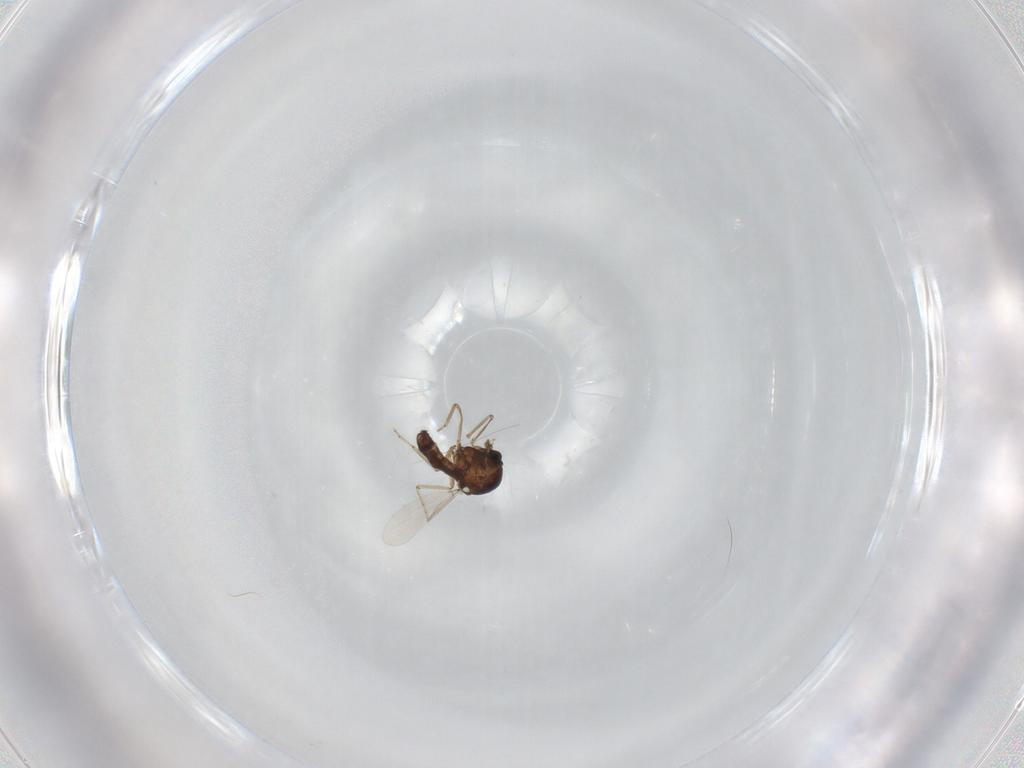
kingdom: Animalia
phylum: Arthropoda
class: Insecta
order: Diptera
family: Ceratopogonidae
